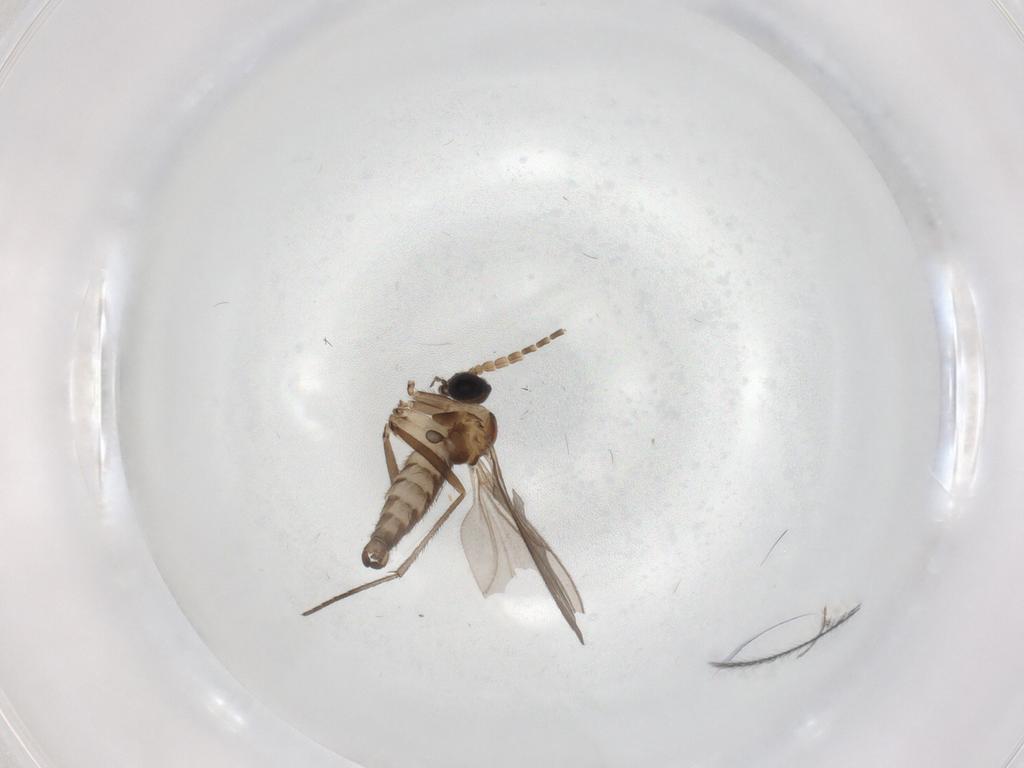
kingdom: Animalia
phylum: Arthropoda
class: Insecta
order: Diptera
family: Sciaridae
